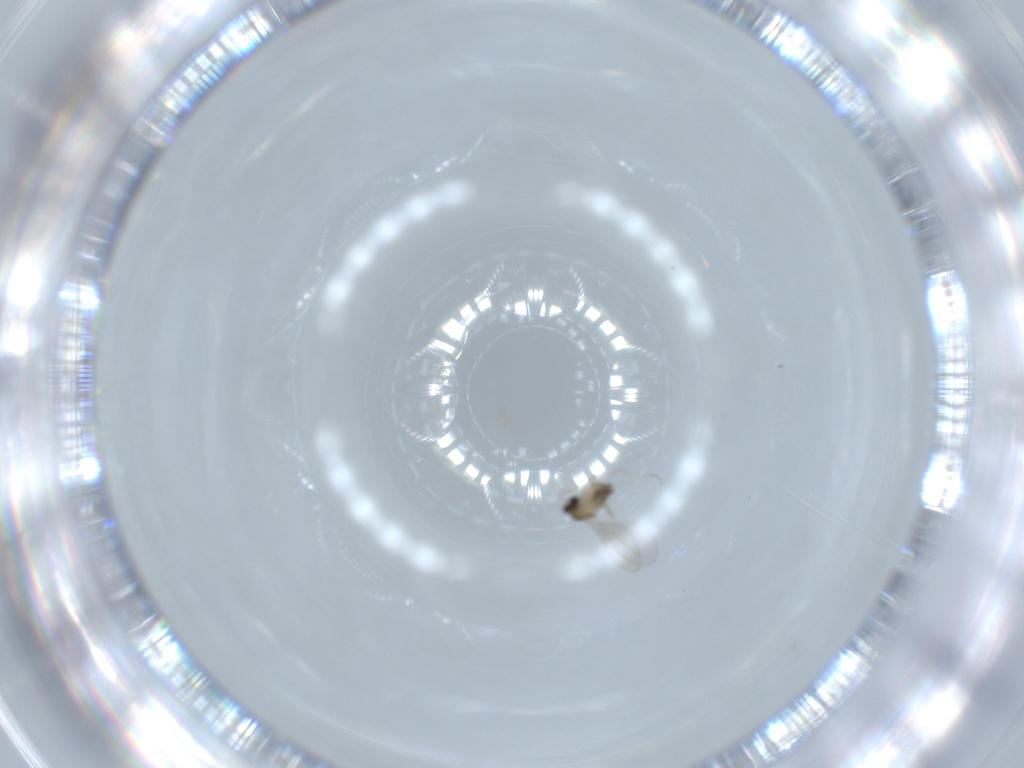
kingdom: Animalia
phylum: Arthropoda
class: Insecta
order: Diptera
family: Cecidomyiidae
